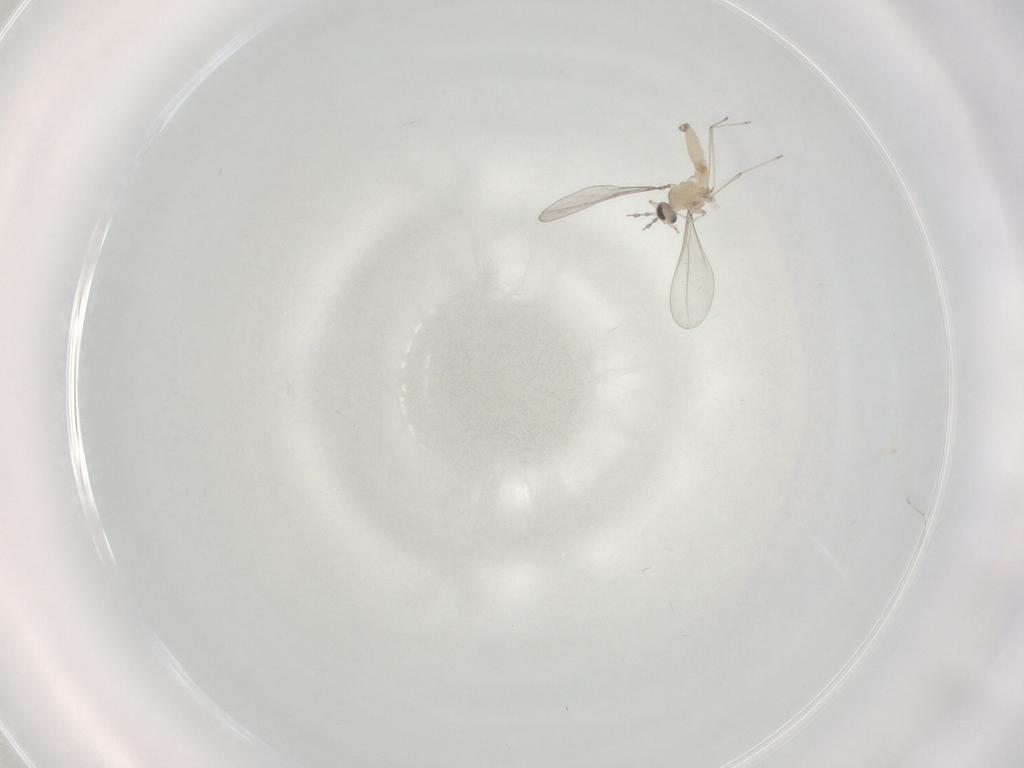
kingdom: Animalia
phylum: Arthropoda
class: Insecta
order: Diptera
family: Cecidomyiidae
